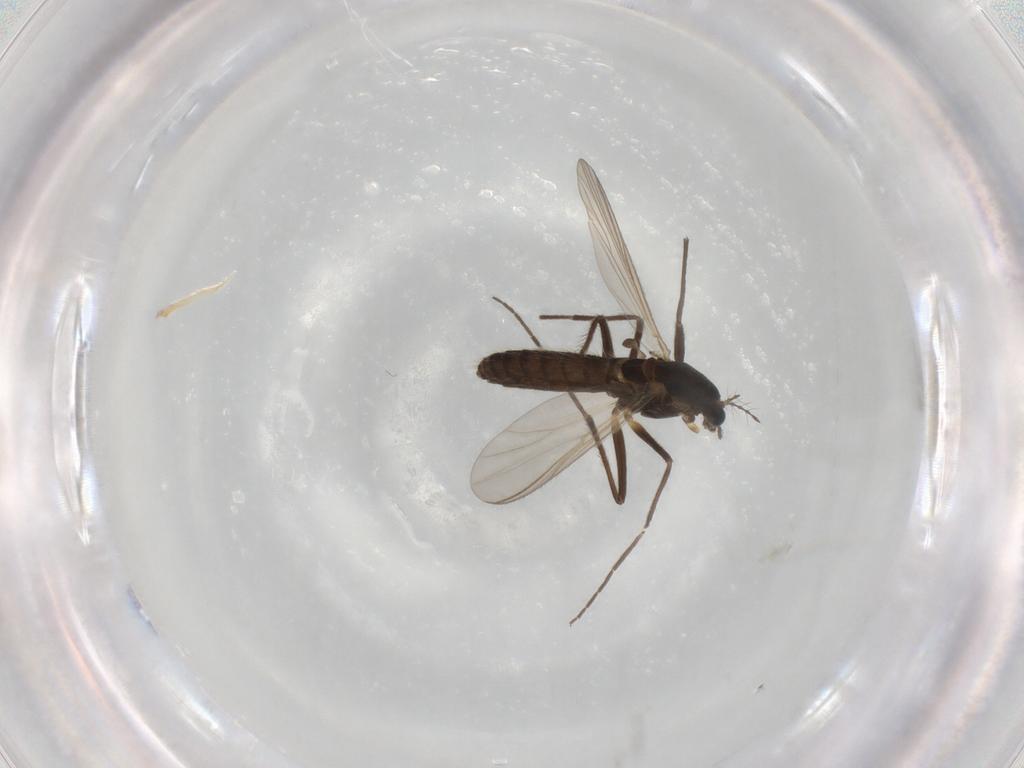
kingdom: Animalia
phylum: Arthropoda
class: Insecta
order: Diptera
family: Chironomidae
